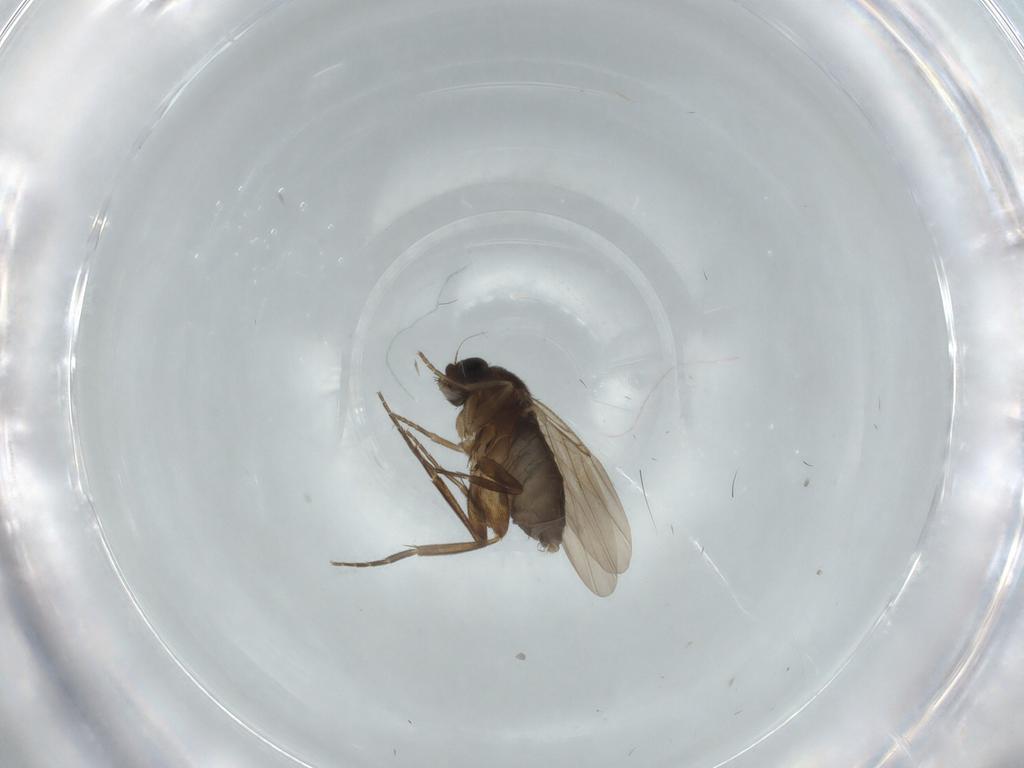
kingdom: Animalia
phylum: Arthropoda
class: Insecta
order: Diptera
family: Phoridae
